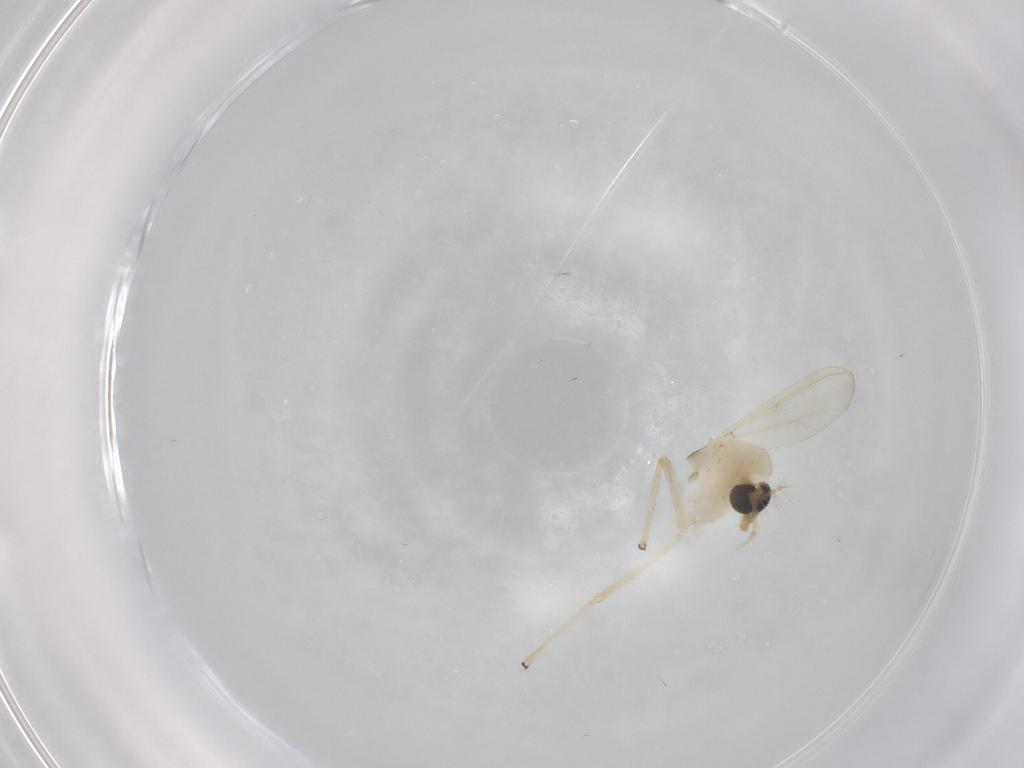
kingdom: Animalia
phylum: Arthropoda
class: Insecta
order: Diptera
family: Chironomidae
